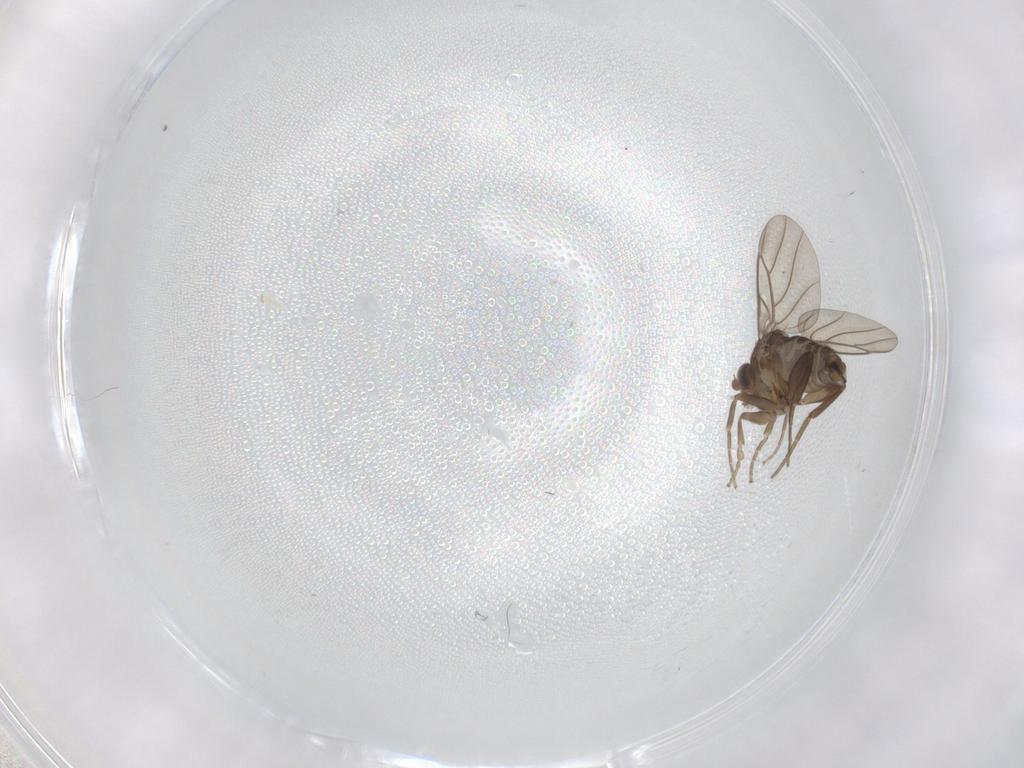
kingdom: Animalia
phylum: Arthropoda
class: Insecta
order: Diptera
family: Phoridae
